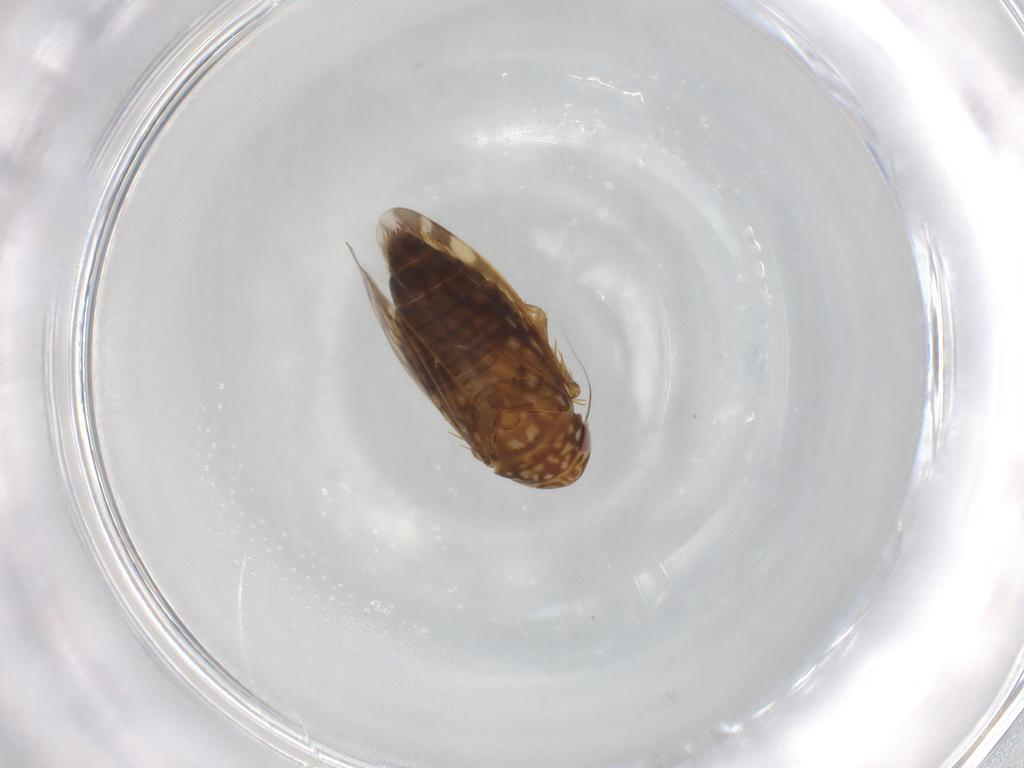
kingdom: Animalia
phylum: Arthropoda
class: Insecta
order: Hemiptera
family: Cicadellidae
